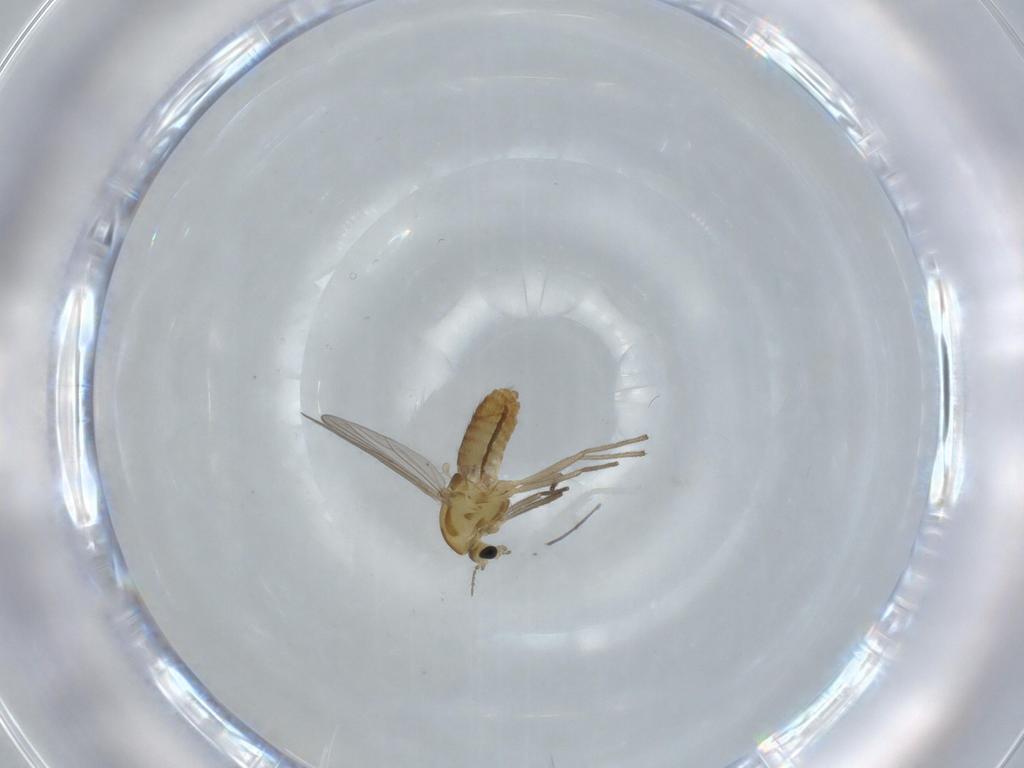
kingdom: Animalia
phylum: Arthropoda
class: Insecta
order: Diptera
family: Chironomidae
